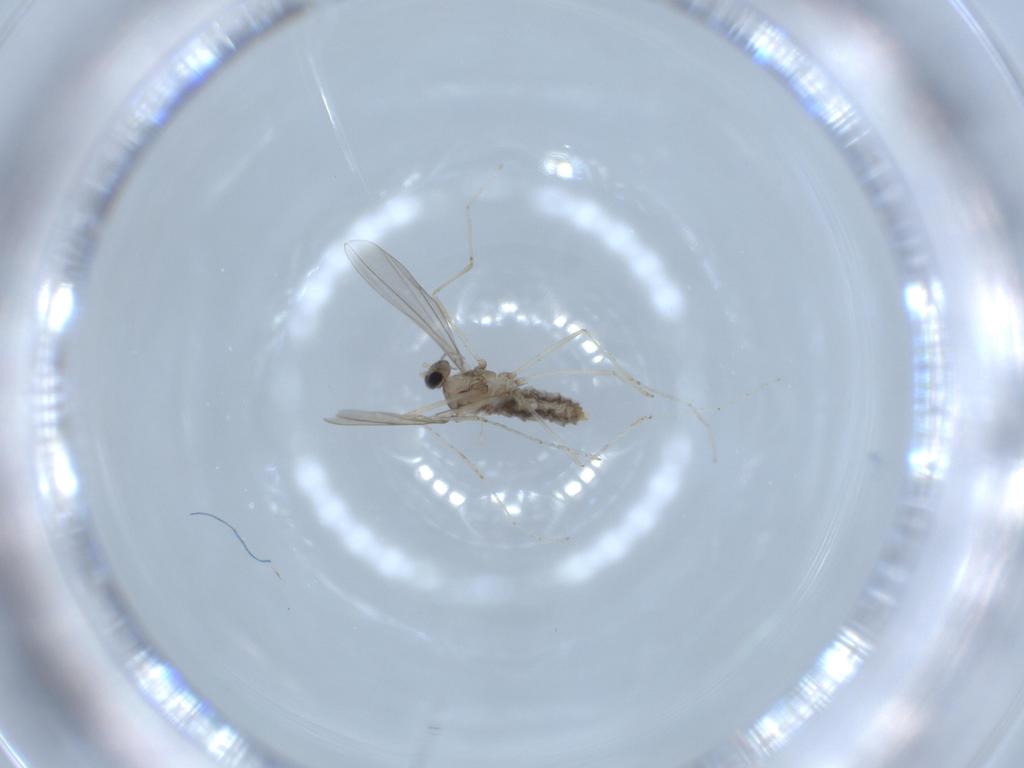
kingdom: Animalia
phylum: Arthropoda
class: Insecta
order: Diptera
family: Cecidomyiidae
